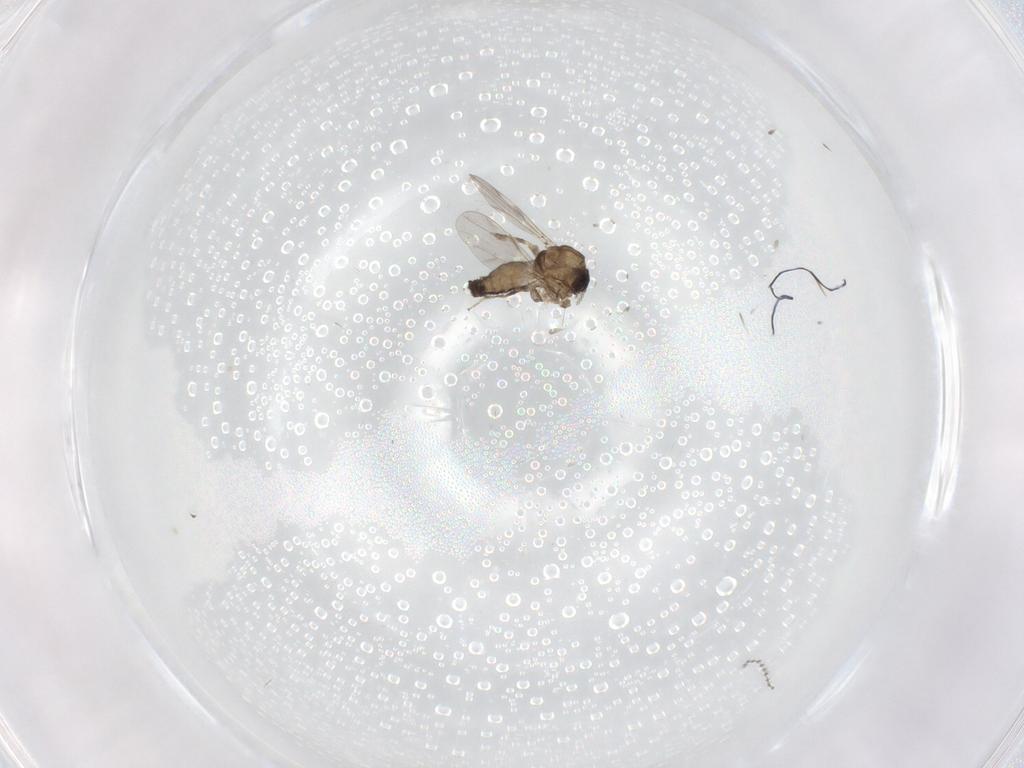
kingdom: Animalia
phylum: Arthropoda
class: Insecta
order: Diptera
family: Ceratopogonidae
